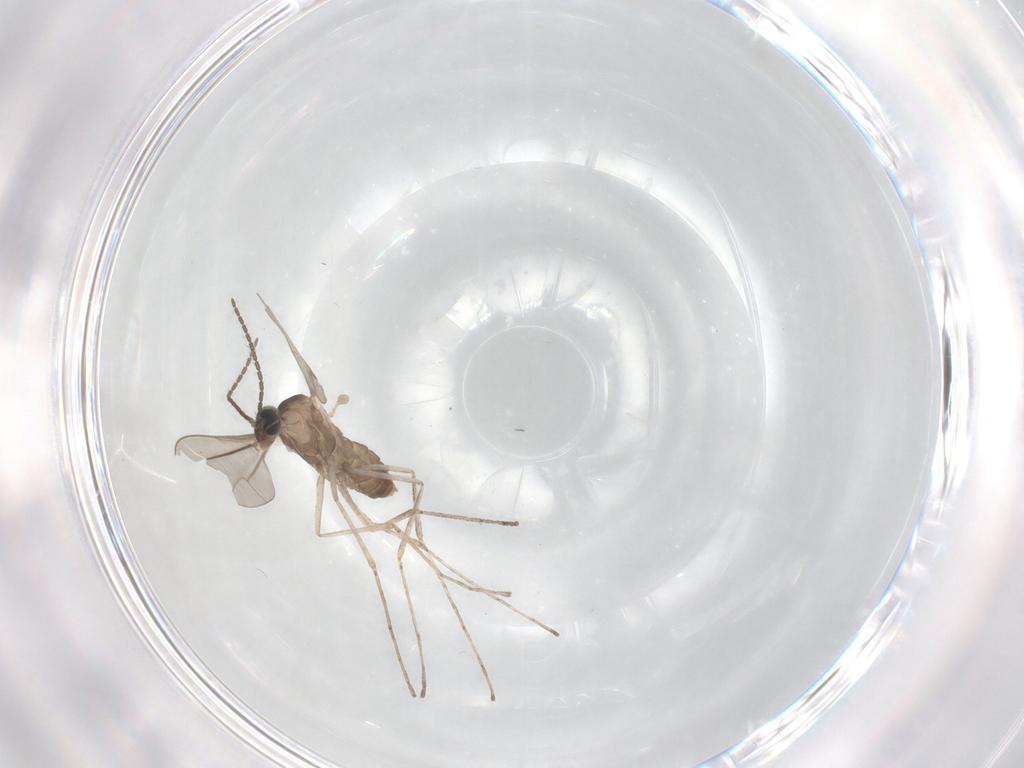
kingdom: Animalia
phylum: Arthropoda
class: Insecta
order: Diptera
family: Cecidomyiidae
